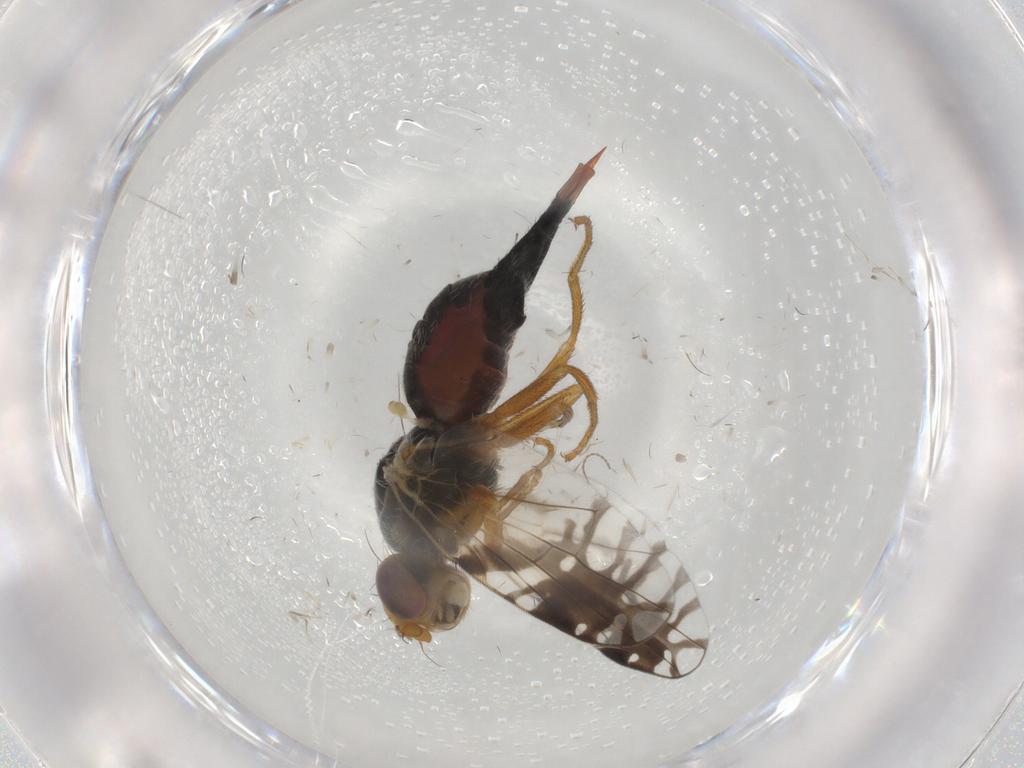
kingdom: Animalia
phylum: Arthropoda
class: Insecta
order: Diptera
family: Tephritidae
